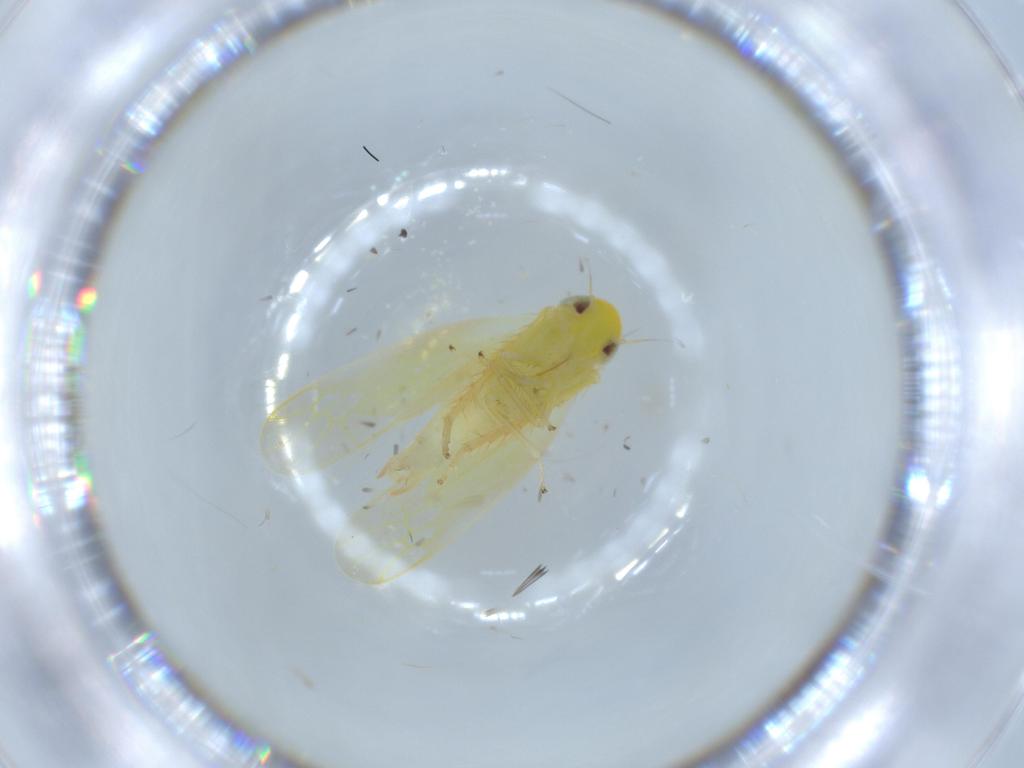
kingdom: Animalia
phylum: Arthropoda
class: Insecta
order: Hemiptera
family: Cicadellidae
